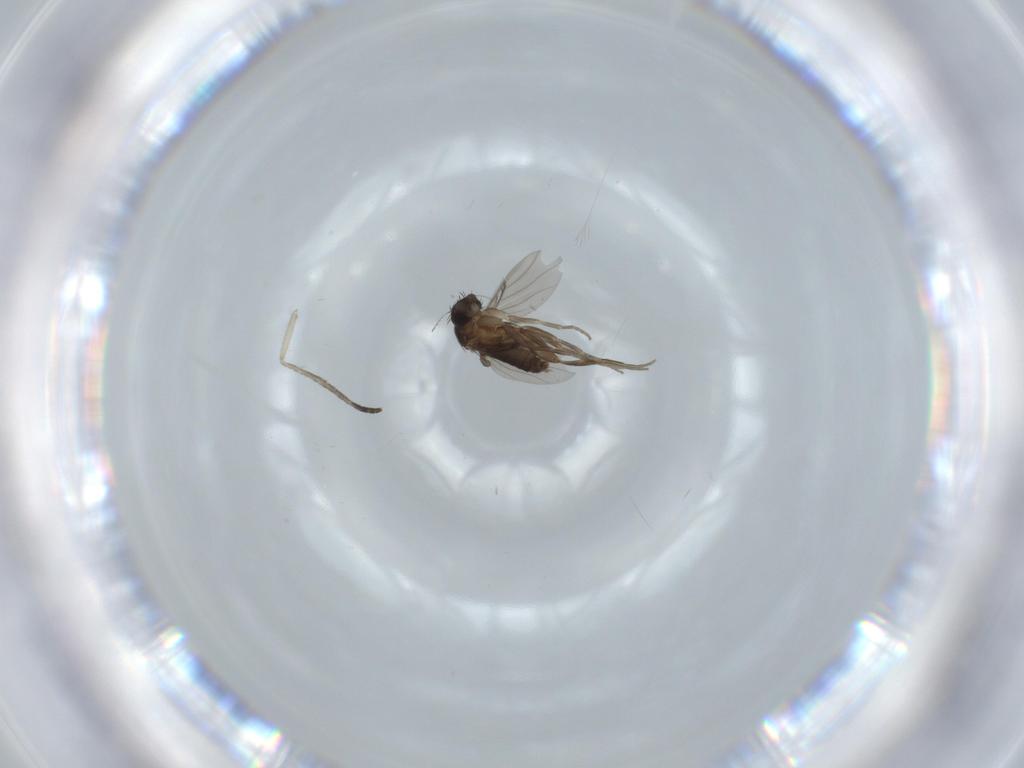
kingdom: Animalia
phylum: Arthropoda
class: Insecta
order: Diptera
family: Phoridae
